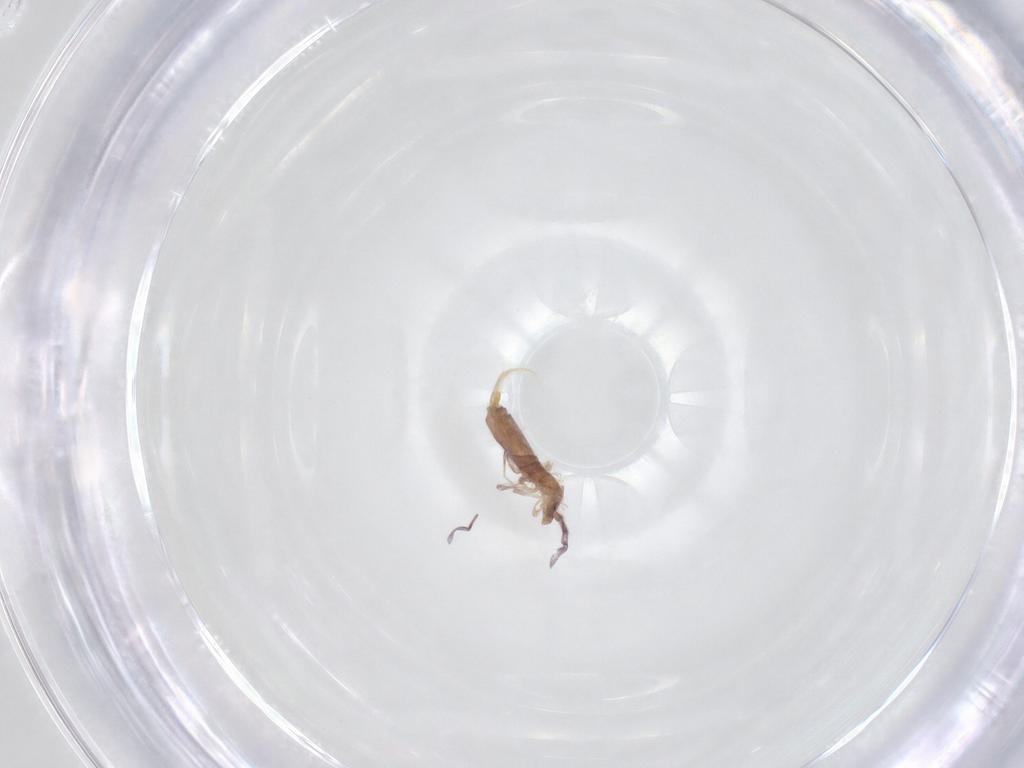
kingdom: Animalia
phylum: Arthropoda
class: Collembola
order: Entomobryomorpha
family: Entomobryidae
